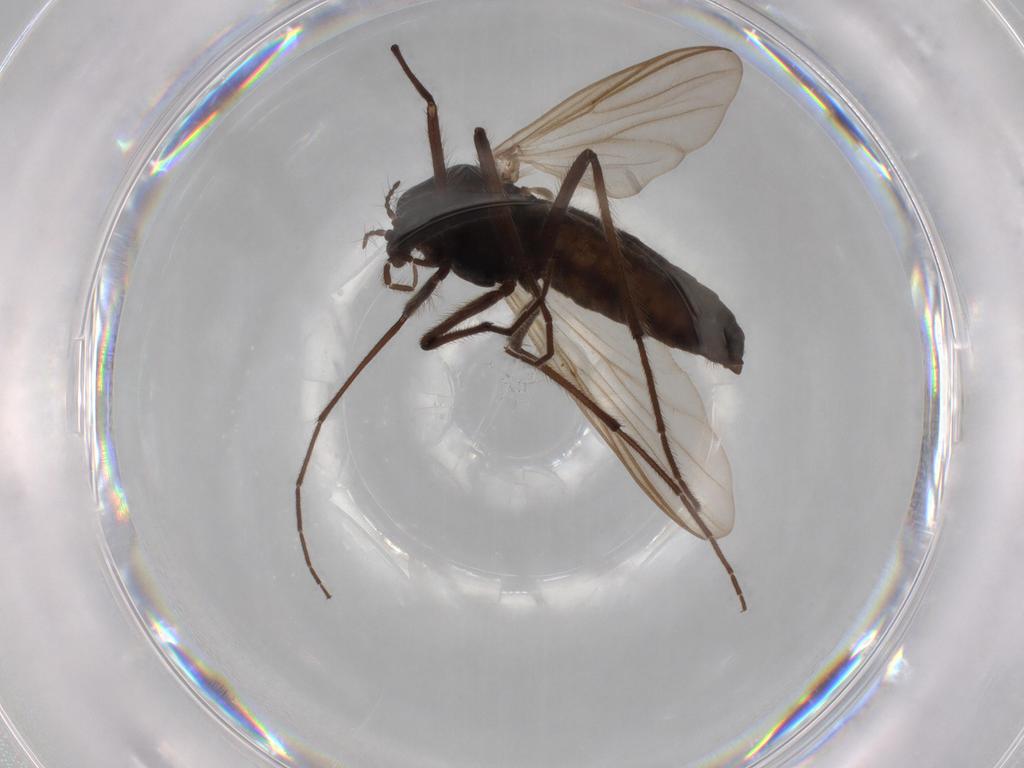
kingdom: Animalia
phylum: Arthropoda
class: Insecta
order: Diptera
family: Phoridae
